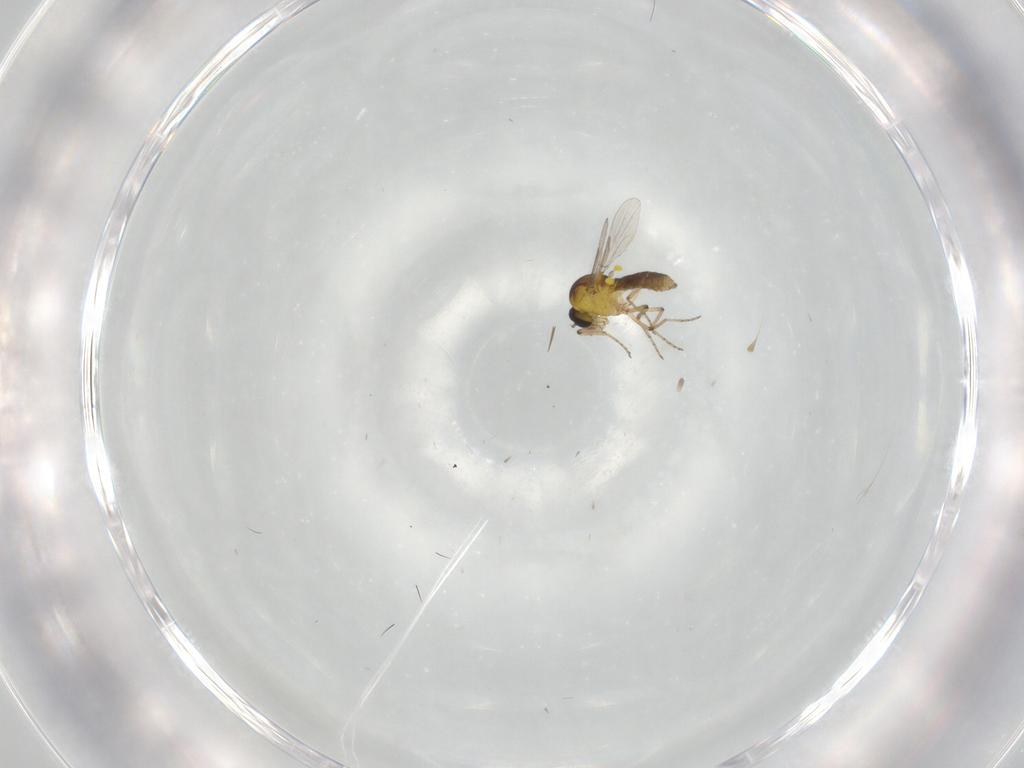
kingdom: Animalia
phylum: Arthropoda
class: Insecta
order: Diptera
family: Ceratopogonidae
